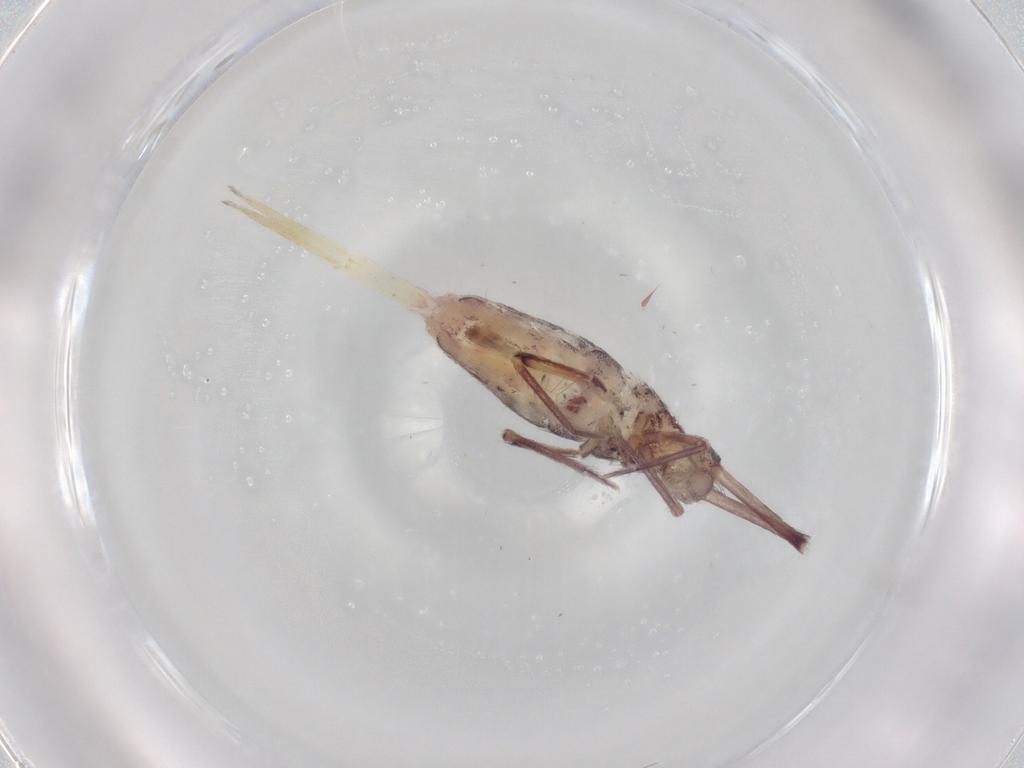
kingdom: Animalia
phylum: Arthropoda
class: Collembola
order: Entomobryomorpha
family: Entomobryidae
